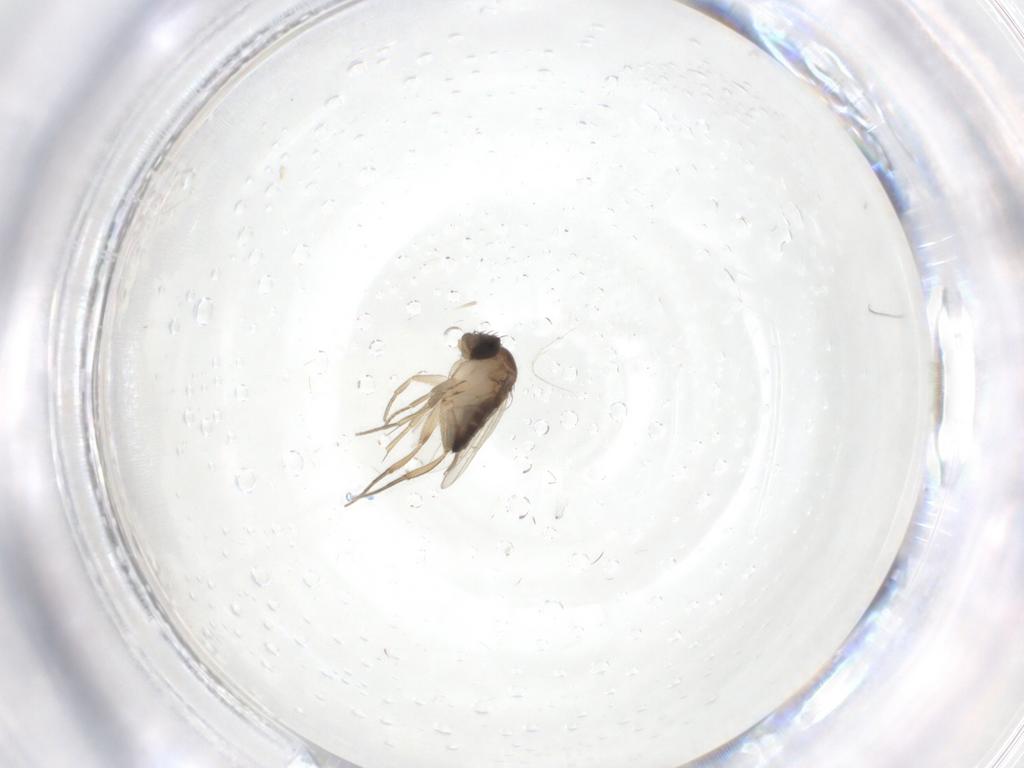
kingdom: Animalia
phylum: Arthropoda
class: Insecta
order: Diptera
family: Psychodidae
